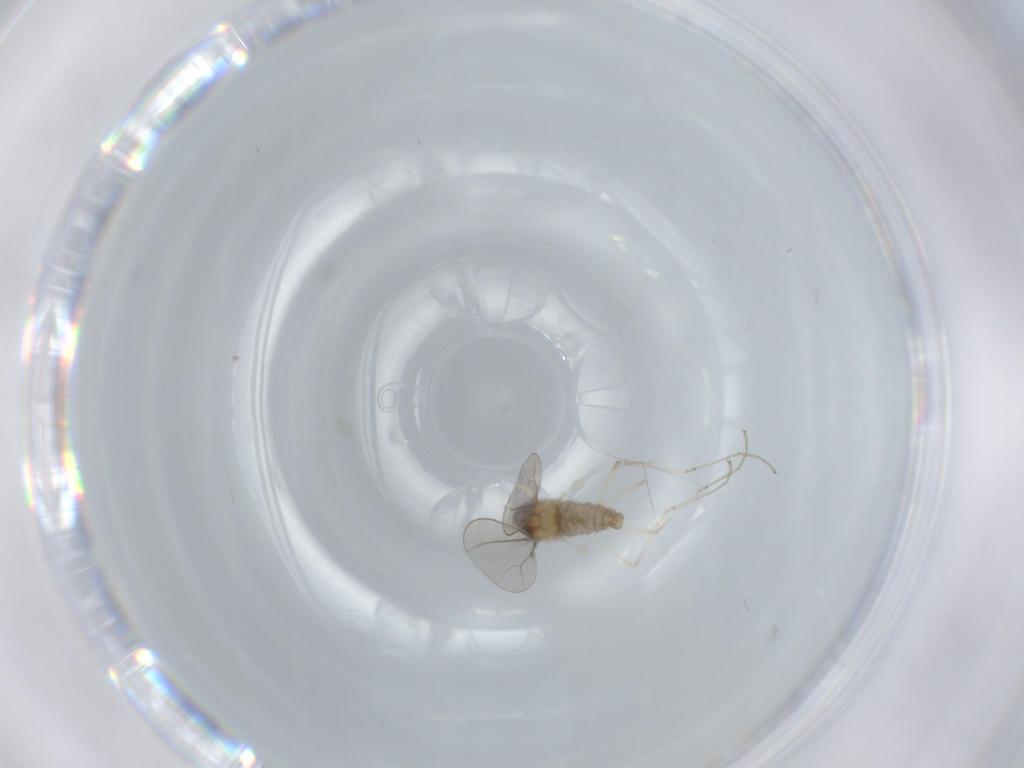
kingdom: Animalia
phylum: Arthropoda
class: Insecta
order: Diptera
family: Cecidomyiidae
